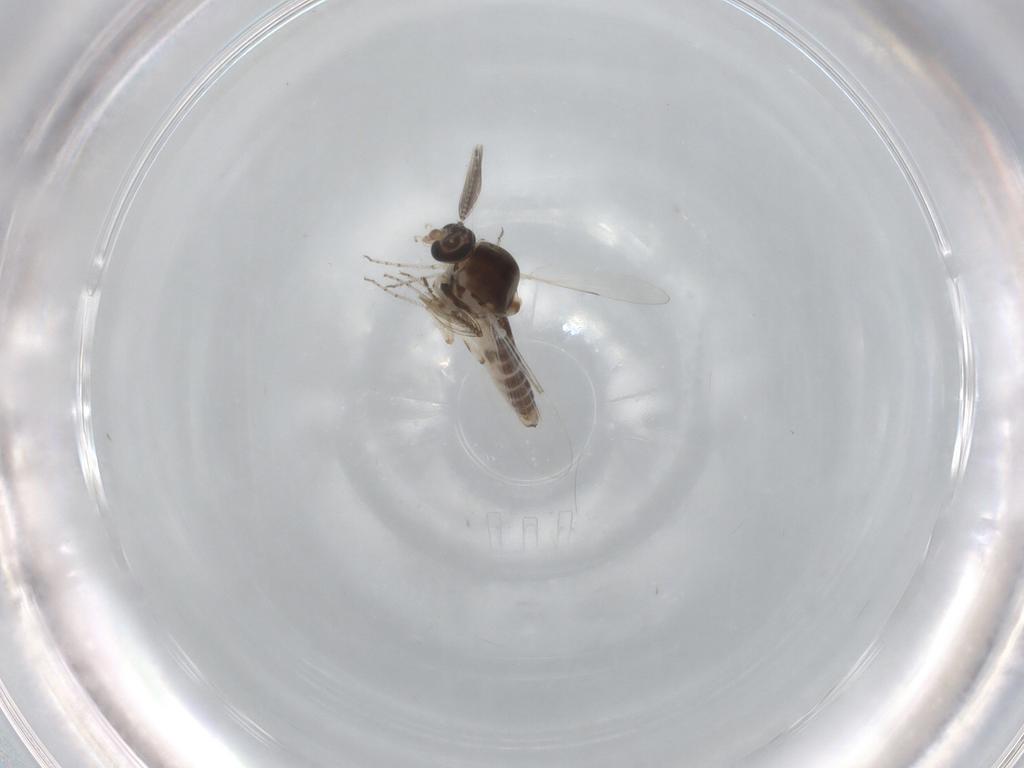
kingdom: Animalia
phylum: Arthropoda
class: Insecta
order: Diptera
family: Ceratopogonidae
